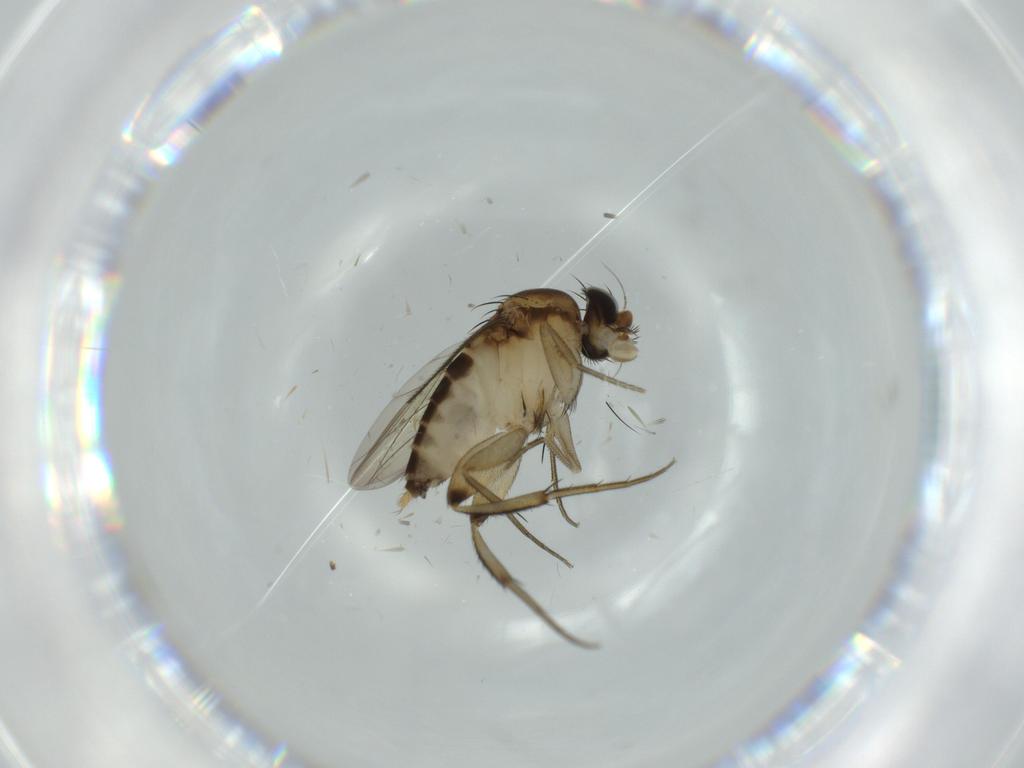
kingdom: Animalia
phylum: Arthropoda
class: Insecta
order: Diptera
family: Phoridae
